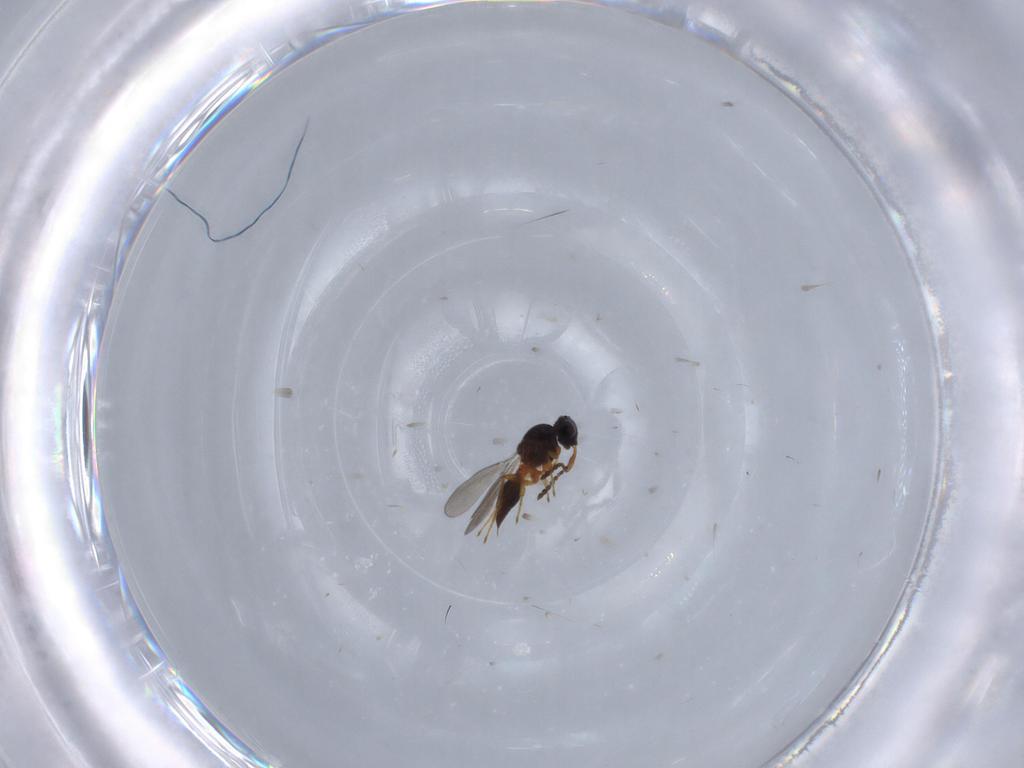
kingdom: Animalia
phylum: Arthropoda
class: Insecta
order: Hymenoptera
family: Platygastridae
